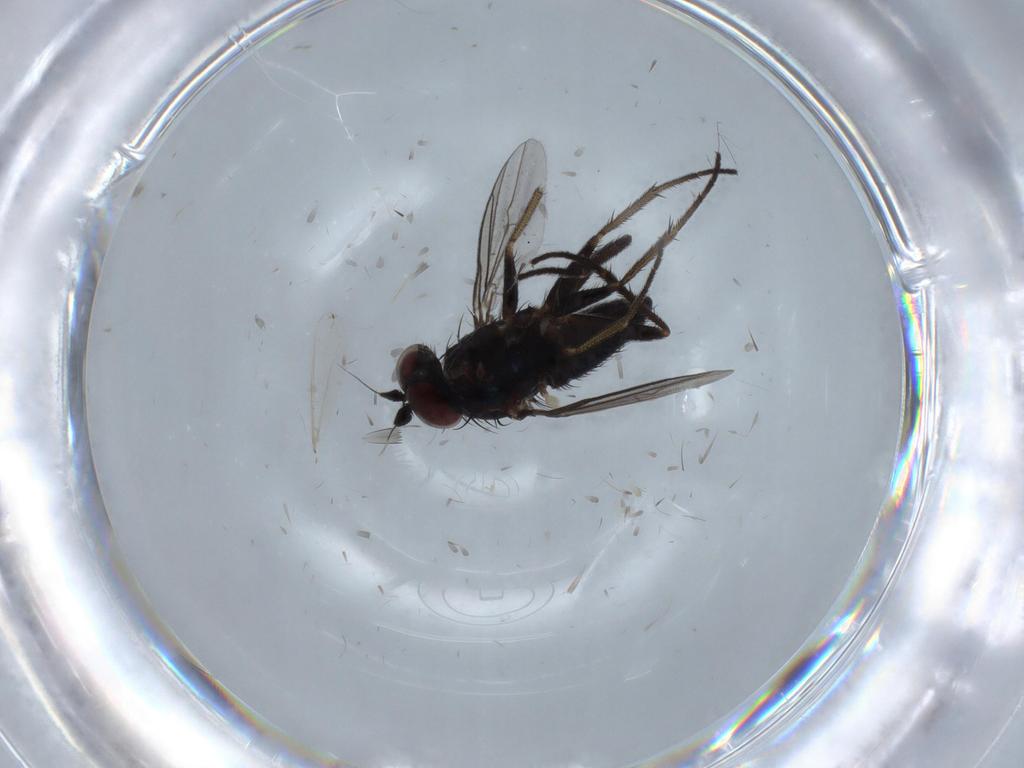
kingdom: Animalia
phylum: Arthropoda
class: Insecta
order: Diptera
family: Dolichopodidae
